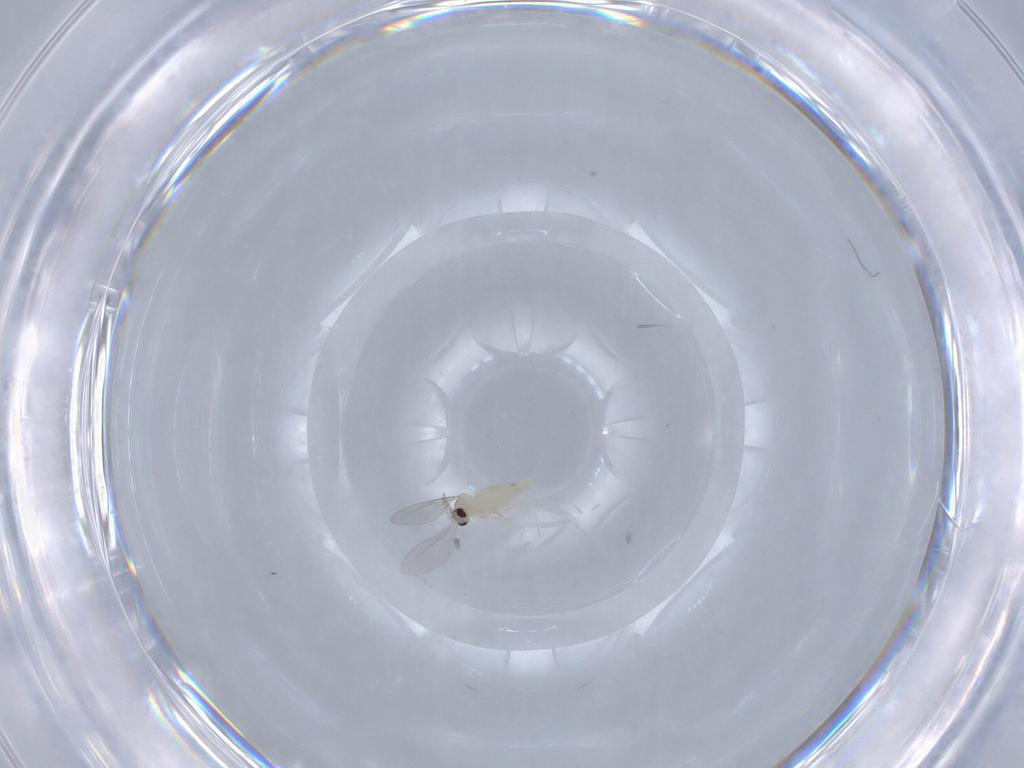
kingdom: Animalia
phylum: Arthropoda
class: Insecta
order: Diptera
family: Cecidomyiidae
